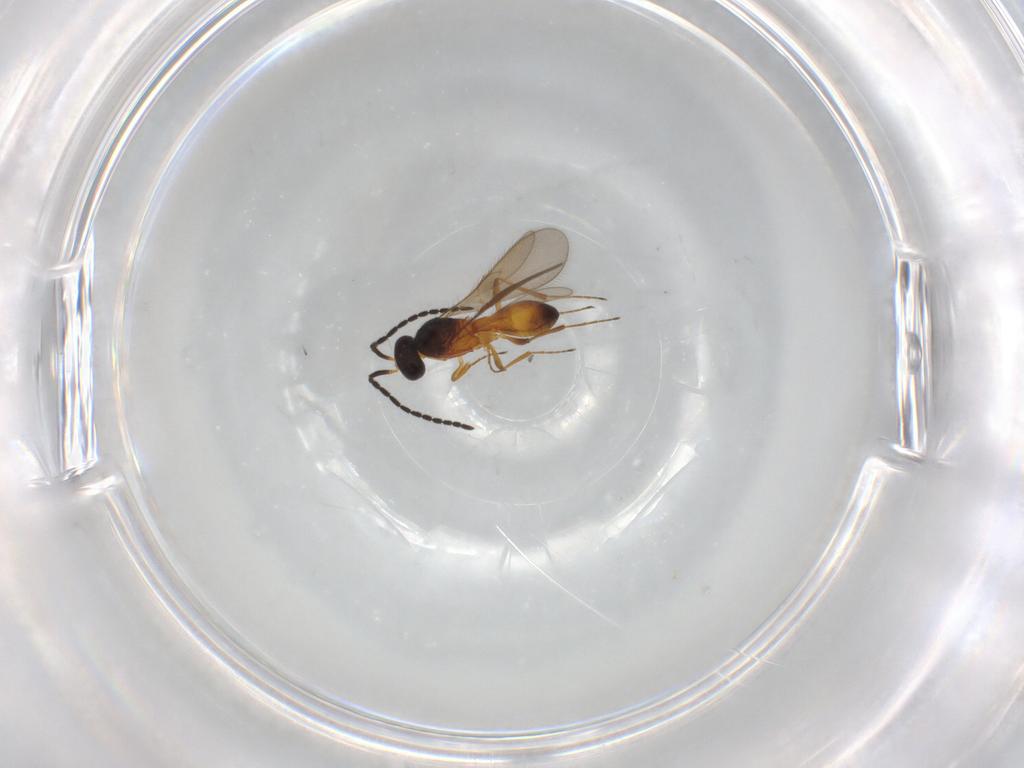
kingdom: Animalia
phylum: Arthropoda
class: Insecta
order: Hymenoptera
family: Scelionidae
